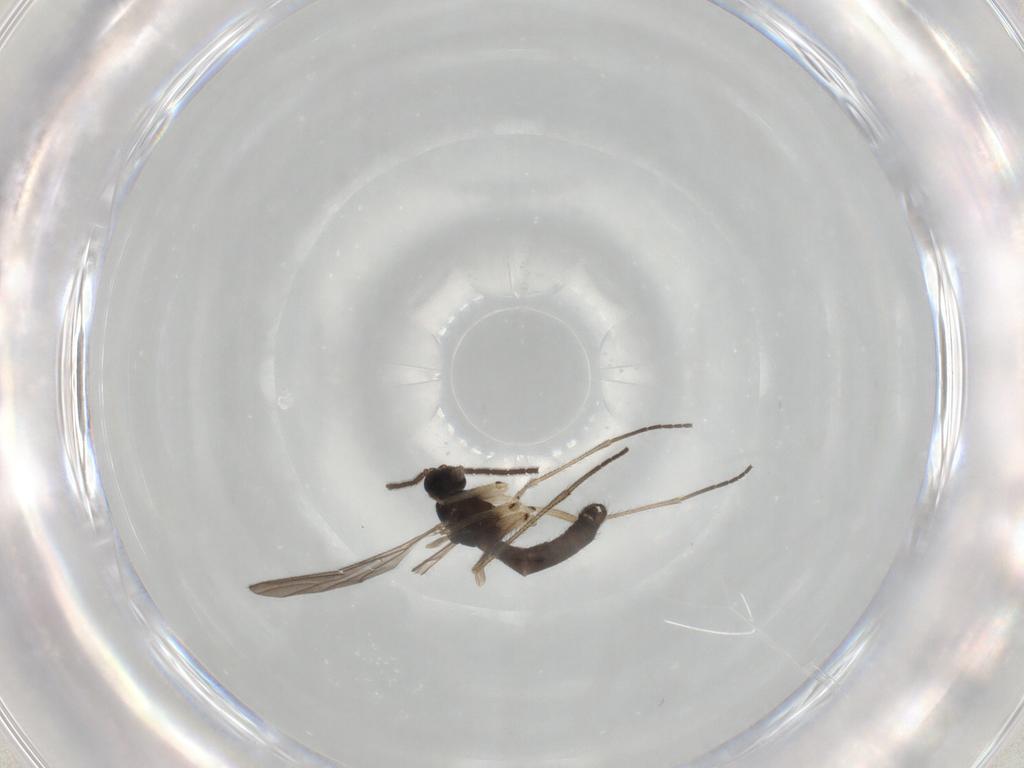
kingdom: Animalia
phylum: Arthropoda
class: Insecta
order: Diptera
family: Sciaridae
